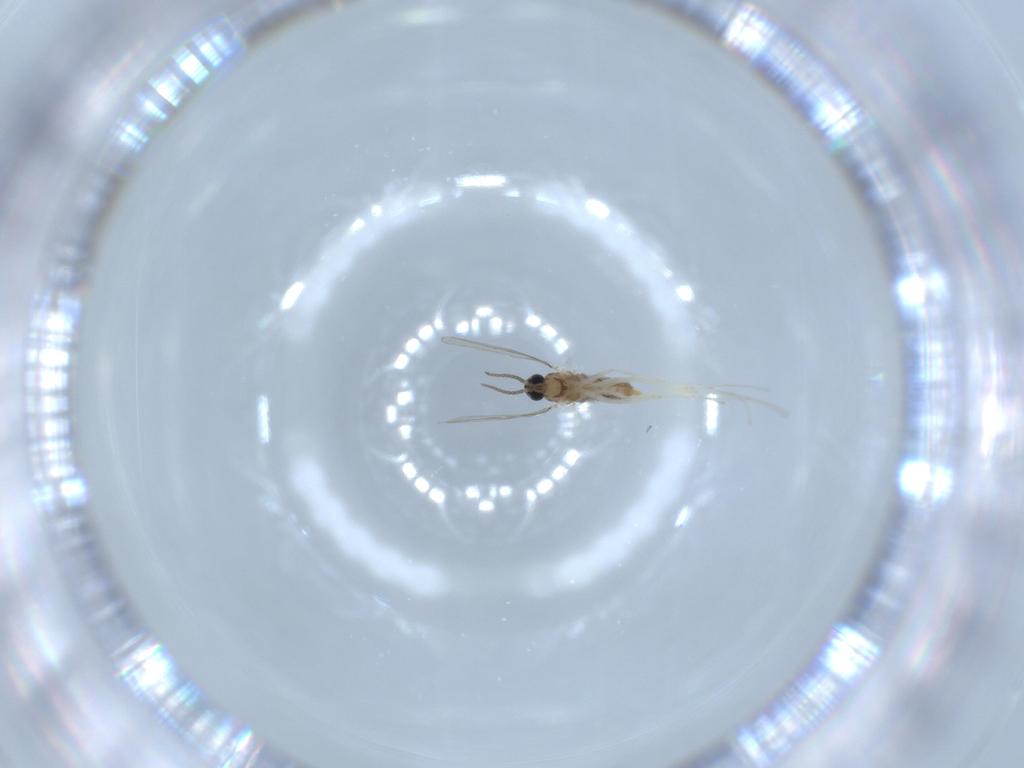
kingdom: Animalia
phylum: Arthropoda
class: Insecta
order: Diptera
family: Cecidomyiidae
